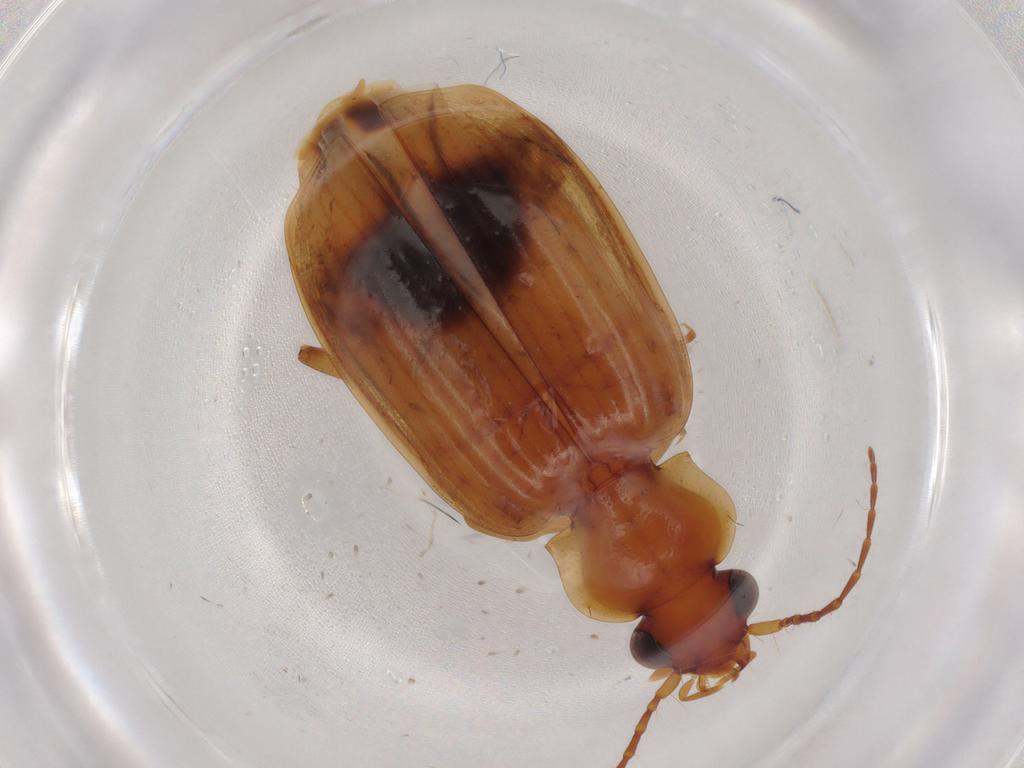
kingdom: Animalia
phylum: Arthropoda
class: Insecta
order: Coleoptera
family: Carabidae
